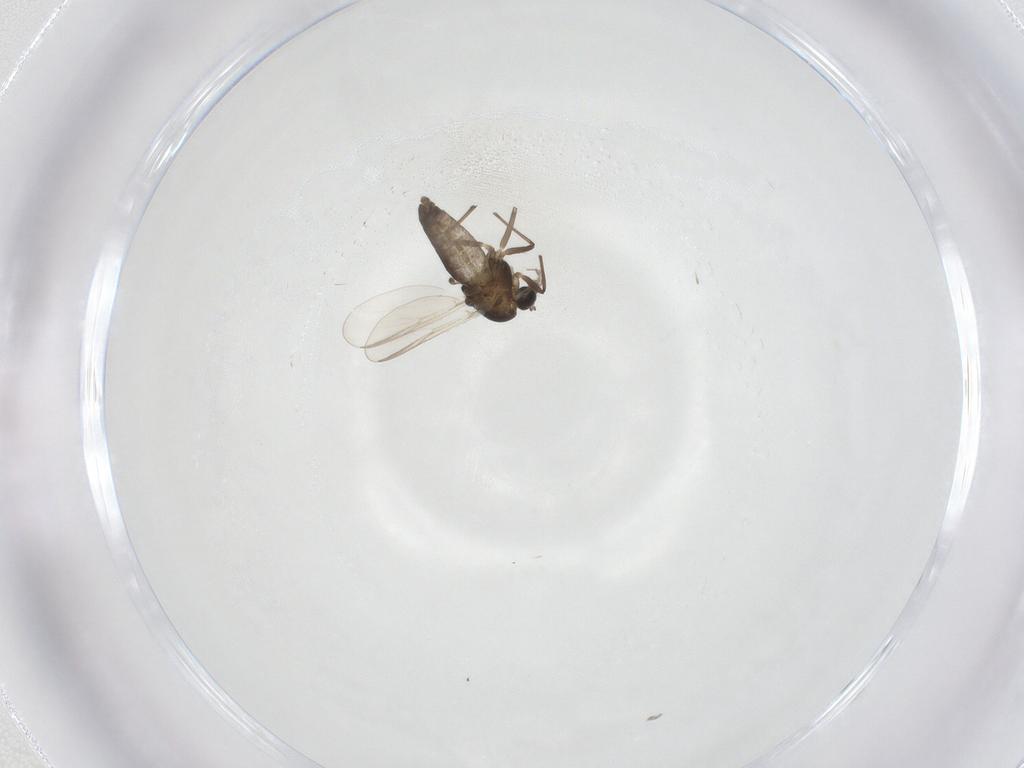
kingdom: Animalia
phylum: Arthropoda
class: Insecta
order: Diptera
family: Chironomidae
